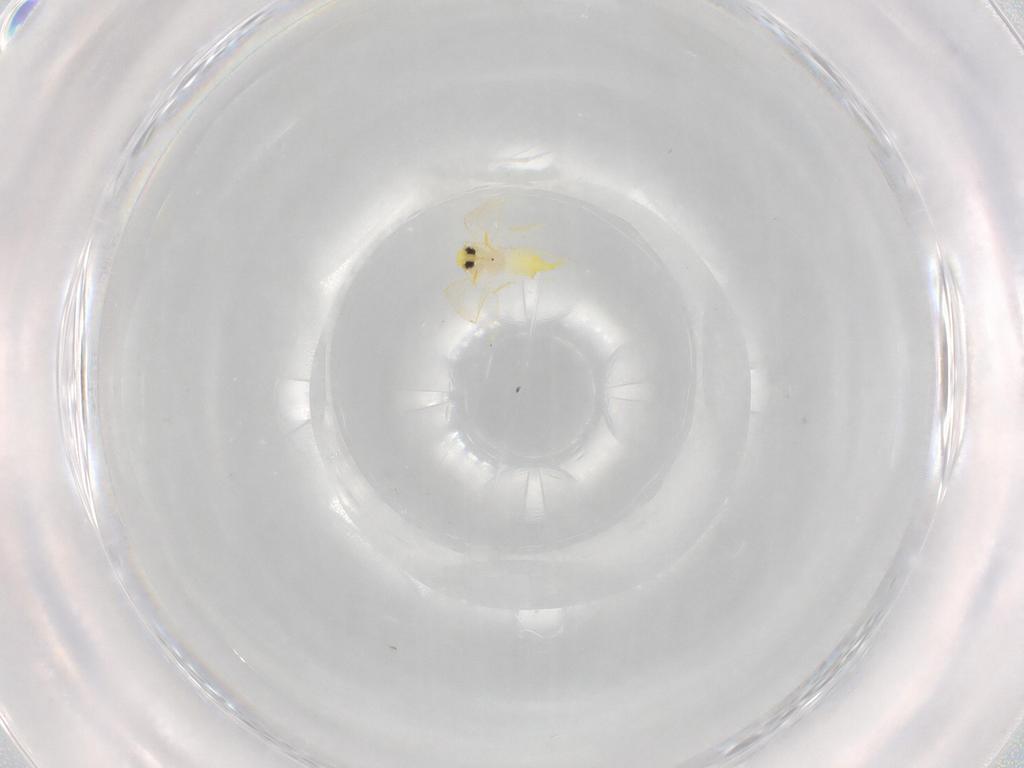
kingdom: Animalia
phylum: Arthropoda
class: Insecta
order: Hemiptera
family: Aleyrodidae
